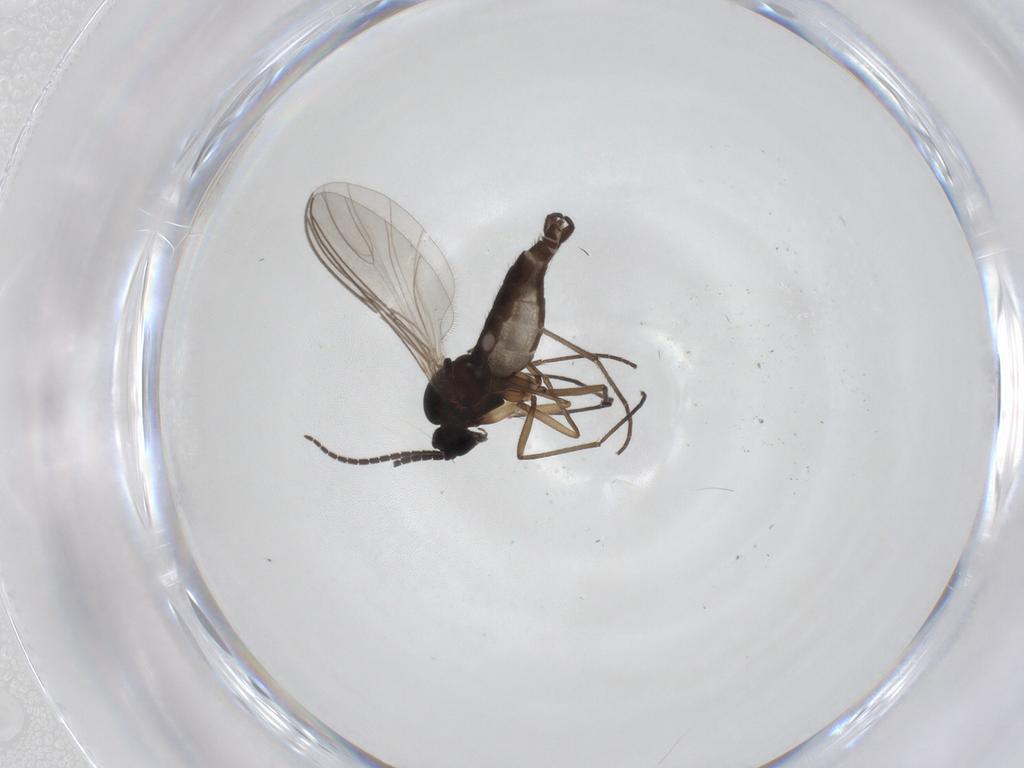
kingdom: Animalia
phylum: Arthropoda
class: Insecta
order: Diptera
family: Sciaridae
